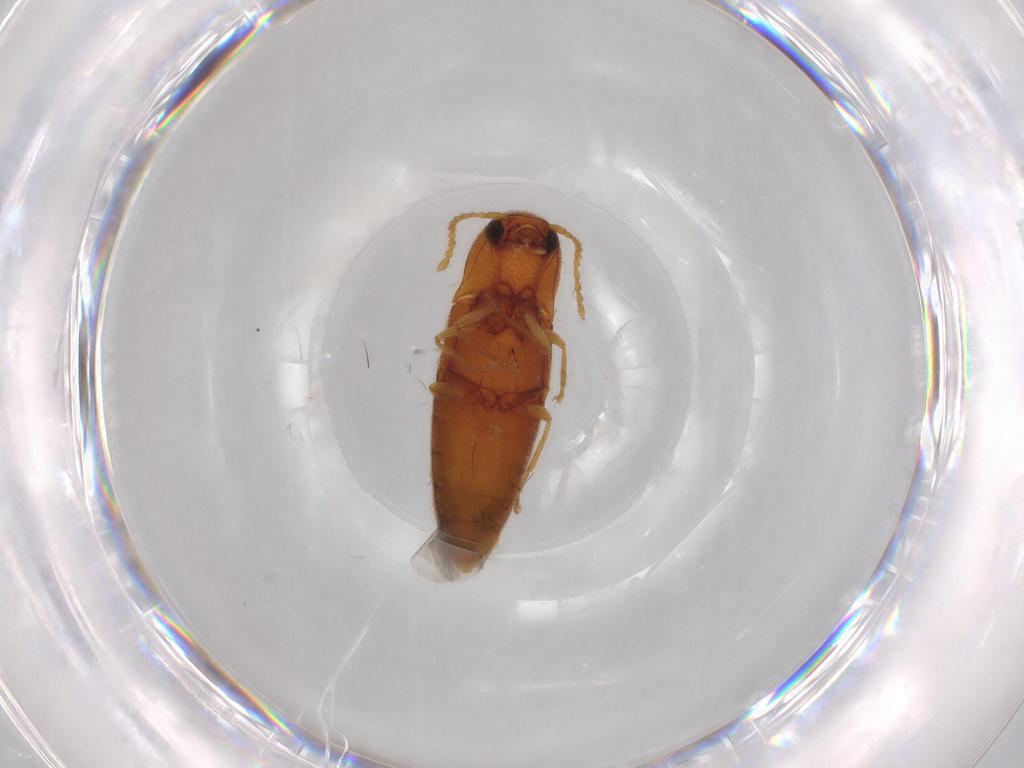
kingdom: Animalia
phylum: Arthropoda
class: Insecta
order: Coleoptera
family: Elateridae
